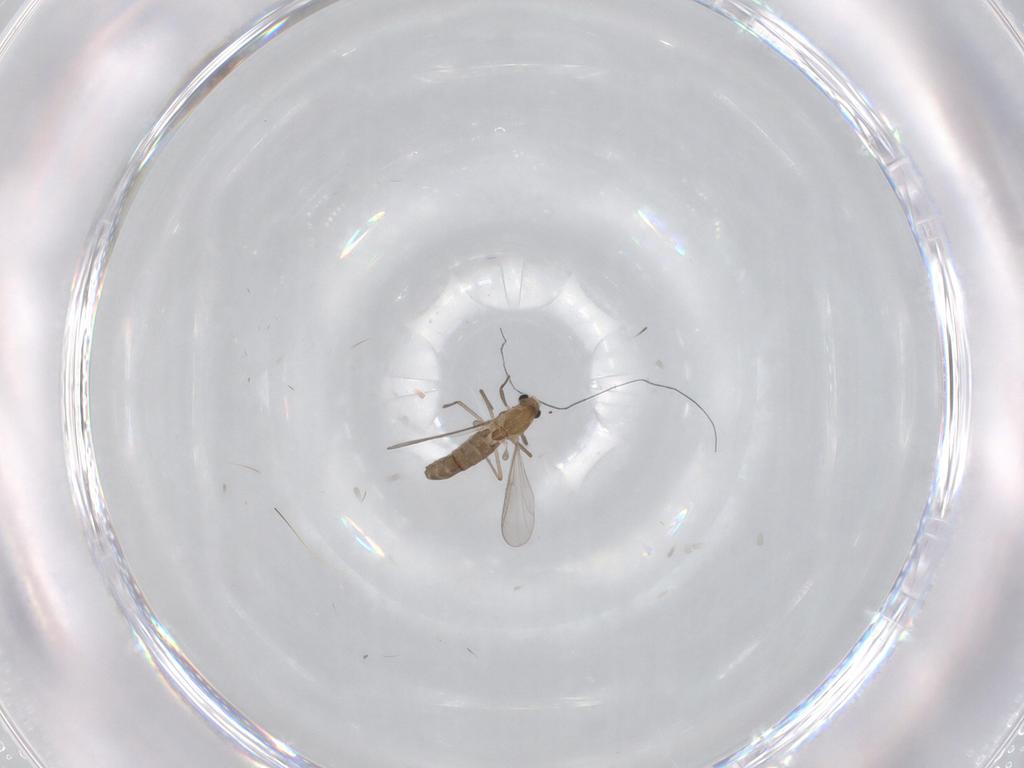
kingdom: Animalia
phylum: Arthropoda
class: Insecta
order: Diptera
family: Chironomidae
